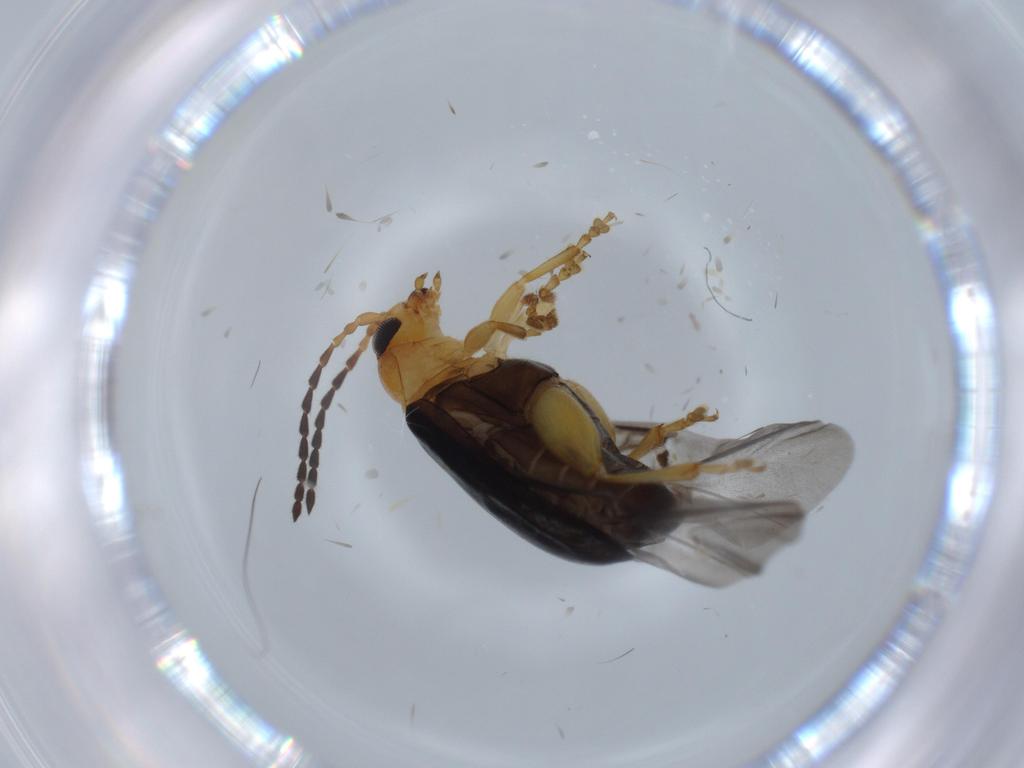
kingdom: Animalia
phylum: Arthropoda
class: Insecta
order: Coleoptera
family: Chrysomelidae
